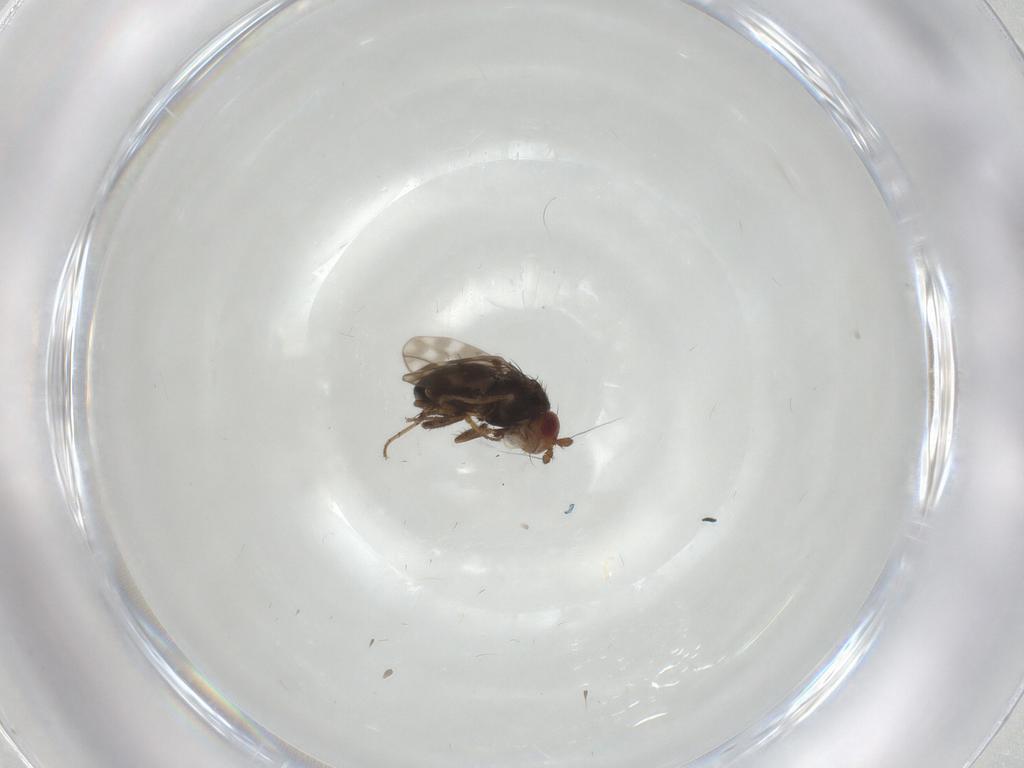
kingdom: Animalia
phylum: Arthropoda
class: Insecta
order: Diptera
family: Sphaeroceridae
